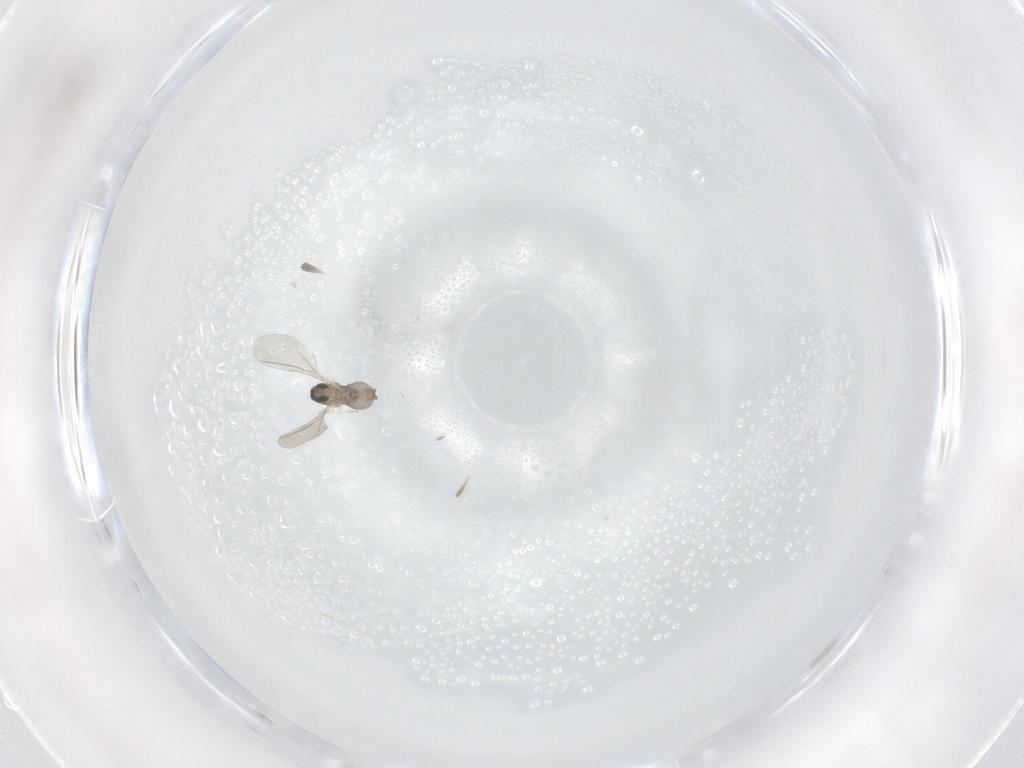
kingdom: Animalia
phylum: Arthropoda
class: Insecta
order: Diptera
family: Cecidomyiidae
